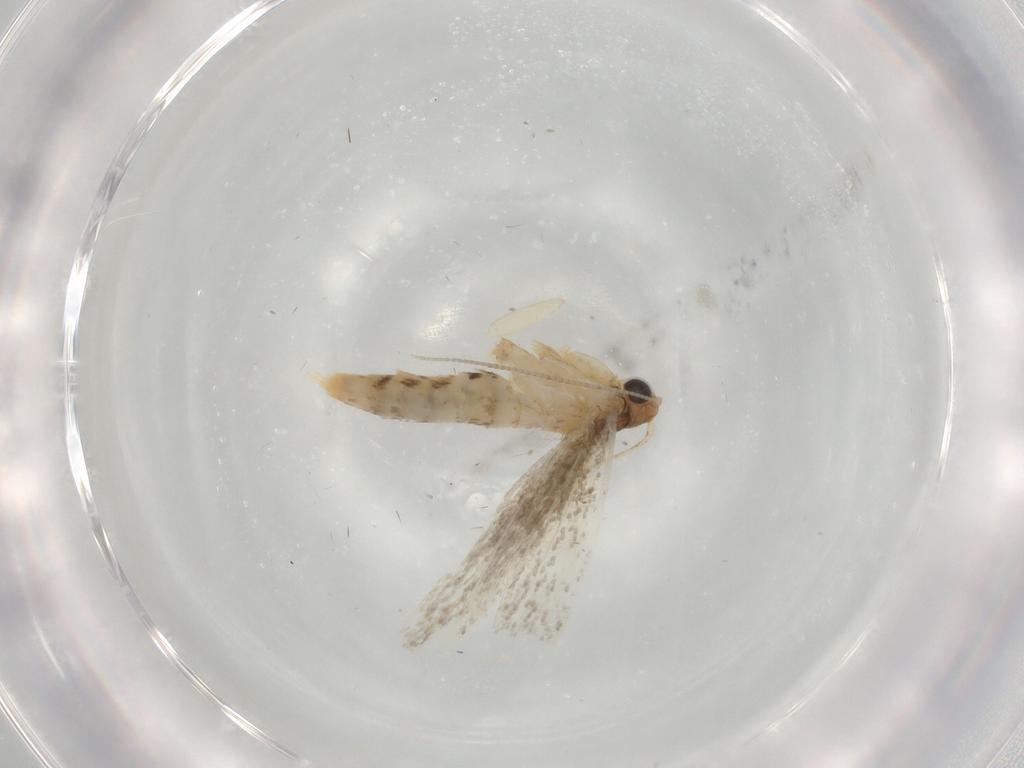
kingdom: Animalia
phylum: Arthropoda
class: Insecta
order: Lepidoptera
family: Tineidae
